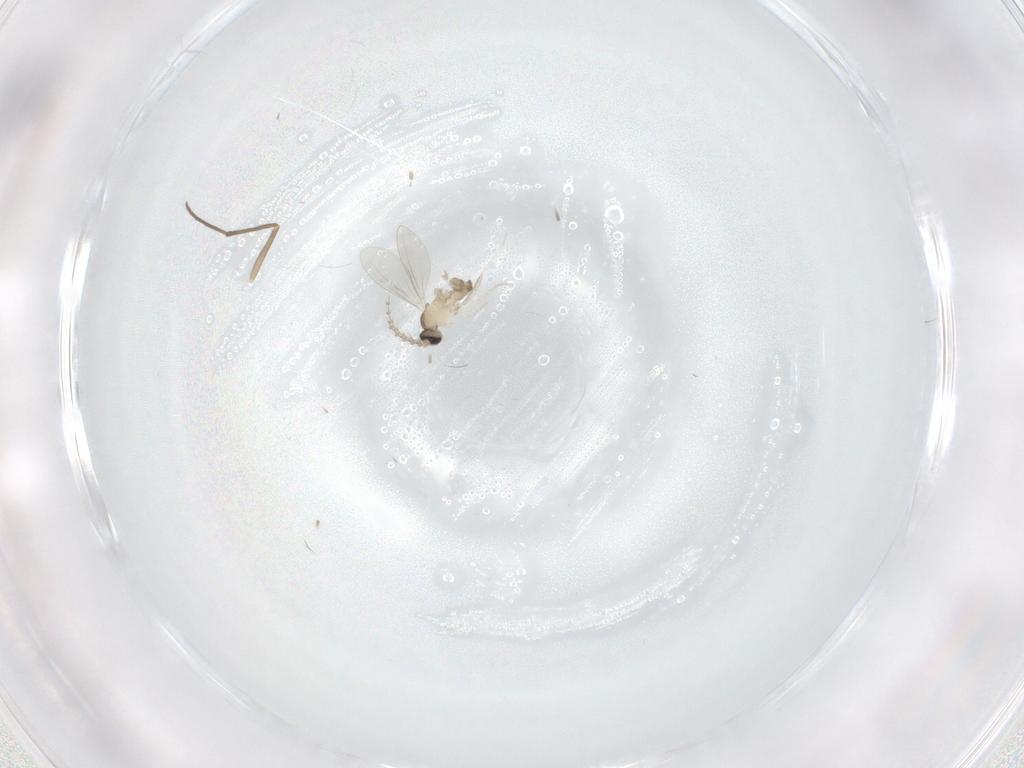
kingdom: Animalia
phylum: Arthropoda
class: Insecta
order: Diptera
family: Cecidomyiidae
